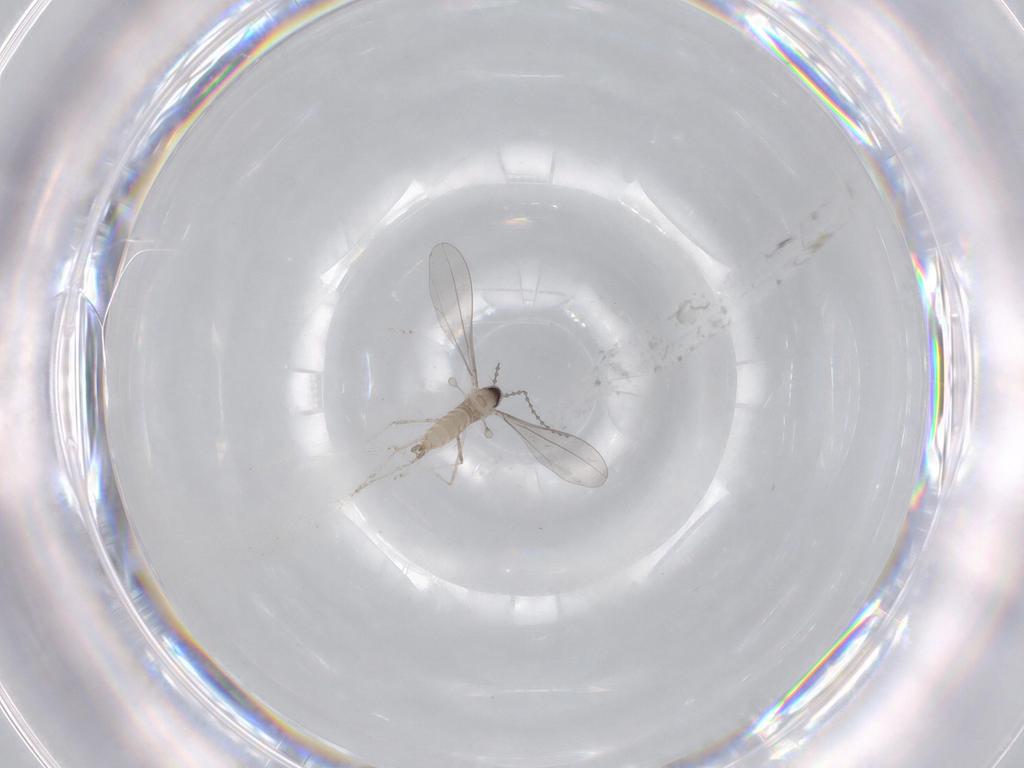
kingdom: Animalia
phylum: Arthropoda
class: Insecta
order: Diptera
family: Cecidomyiidae
